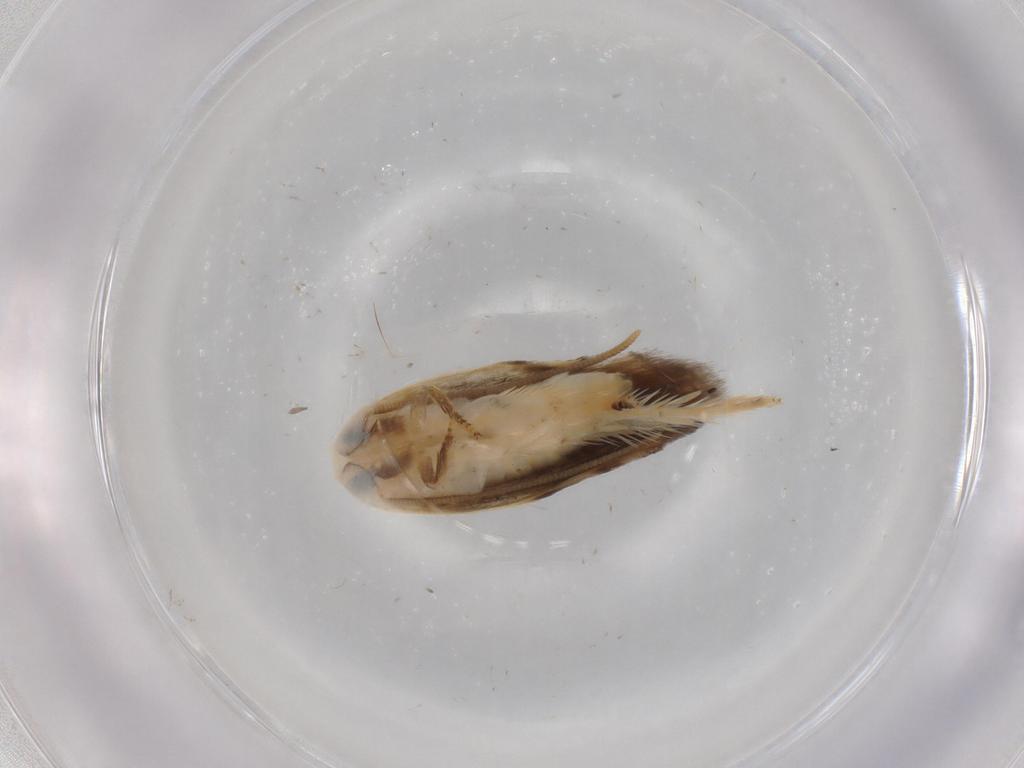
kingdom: Animalia
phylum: Arthropoda
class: Insecta
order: Lepidoptera
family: Opostegidae
